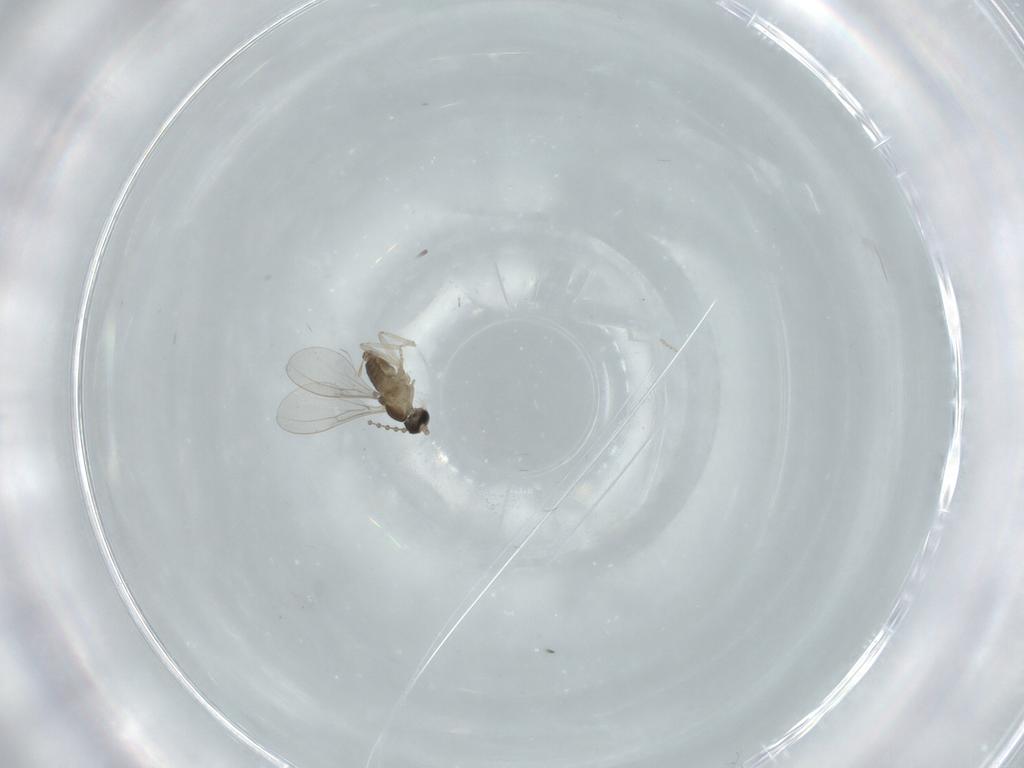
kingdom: Animalia
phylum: Arthropoda
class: Insecta
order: Diptera
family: Cecidomyiidae
